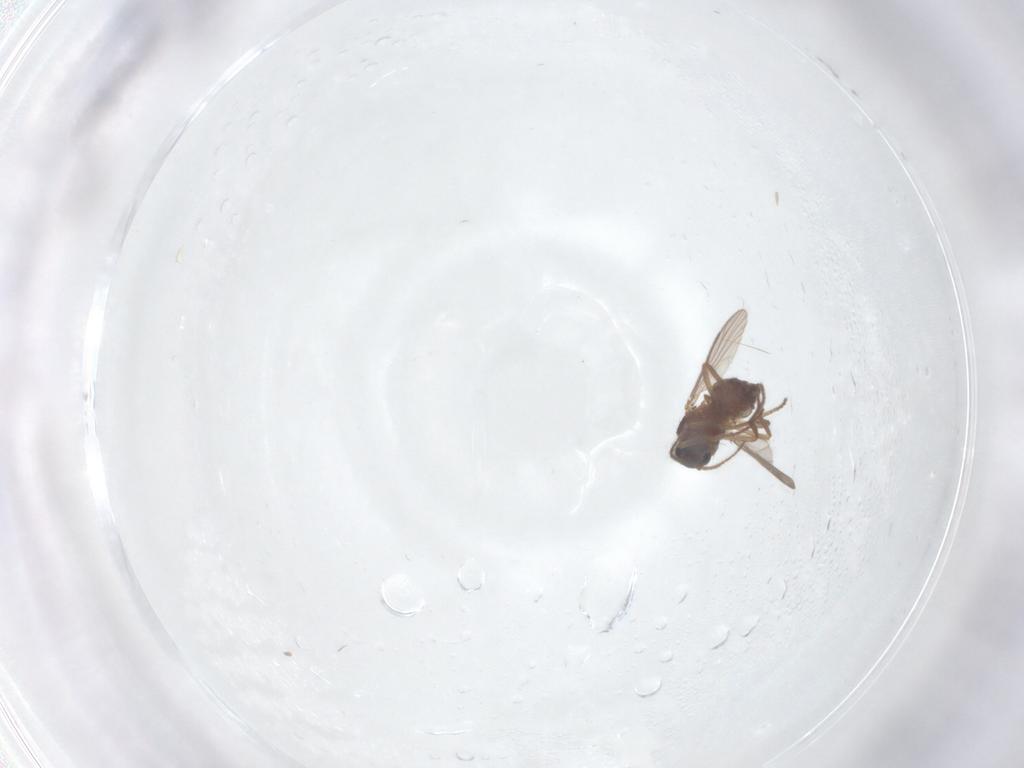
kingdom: Animalia
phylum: Arthropoda
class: Insecta
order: Diptera
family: Ceratopogonidae
